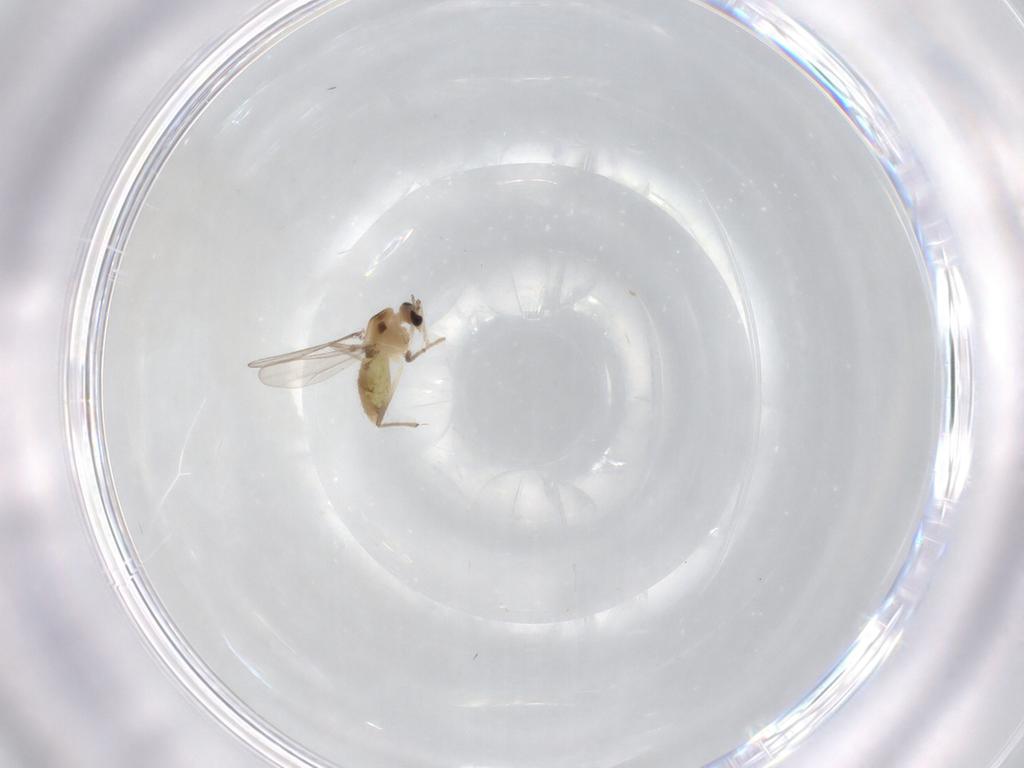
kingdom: Animalia
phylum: Arthropoda
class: Insecta
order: Diptera
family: Chironomidae
